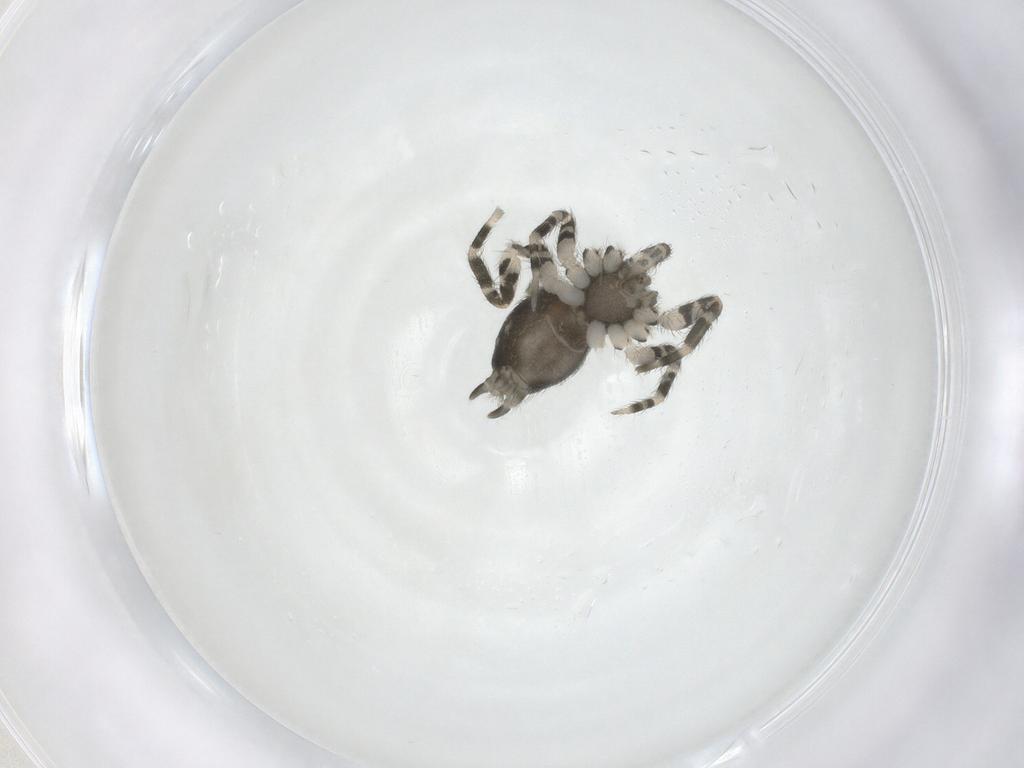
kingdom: Animalia
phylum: Arthropoda
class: Arachnida
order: Araneae
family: Oecobiidae
